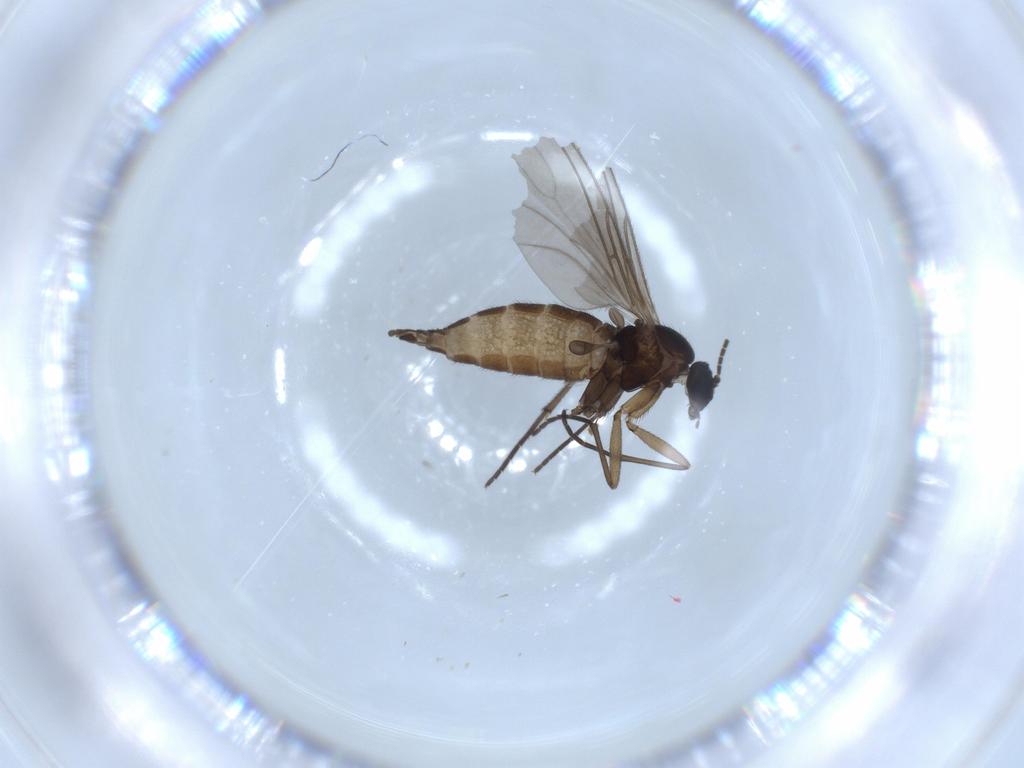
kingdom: Animalia
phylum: Arthropoda
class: Insecta
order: Diptera
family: Sciaridae
